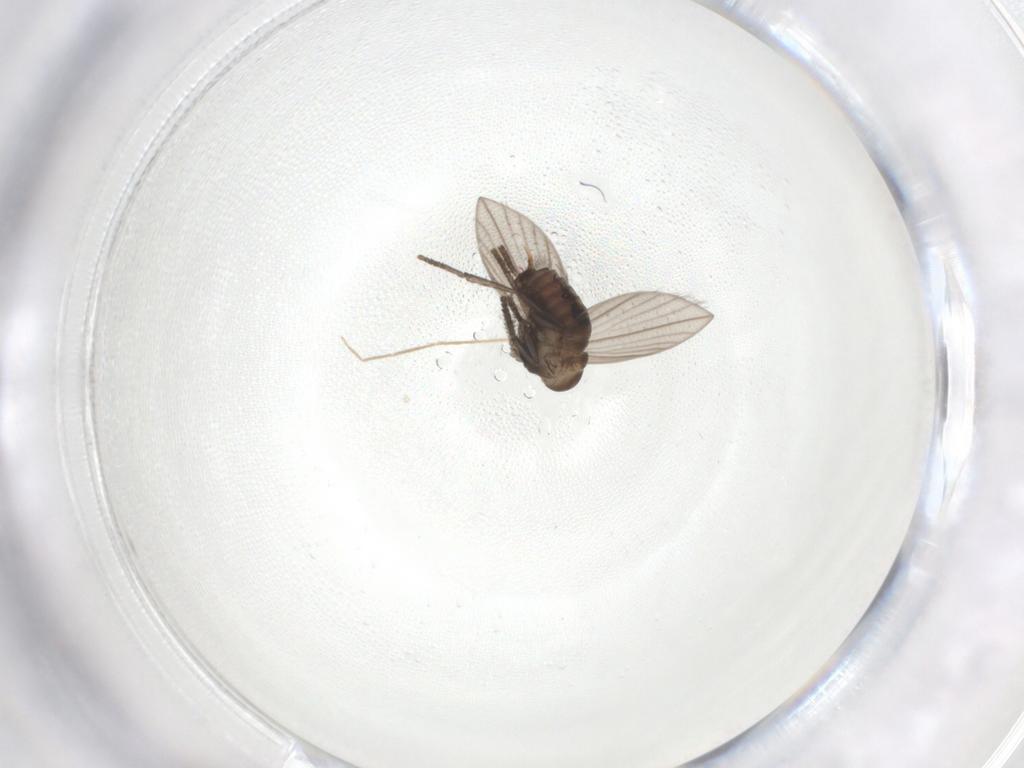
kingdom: Animalia
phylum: Arthropoda
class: Insecta
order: Diptera
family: Psychodidae
